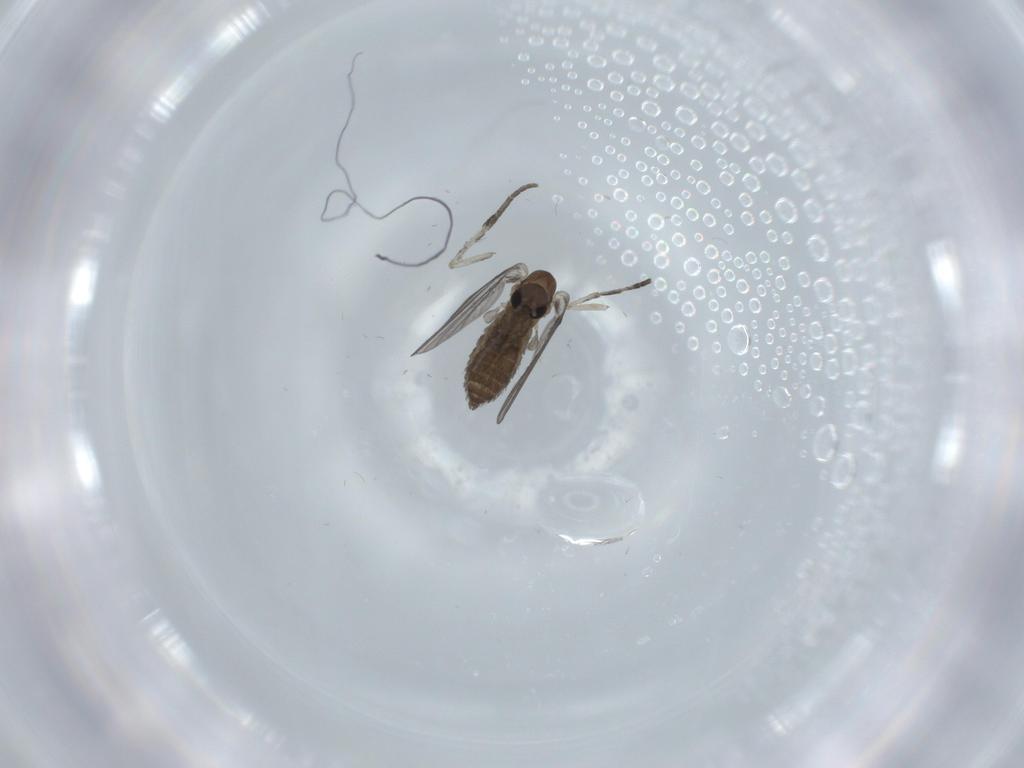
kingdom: Animalia
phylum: Arthropoda
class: Insecta
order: Diptera
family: Psychodidae
